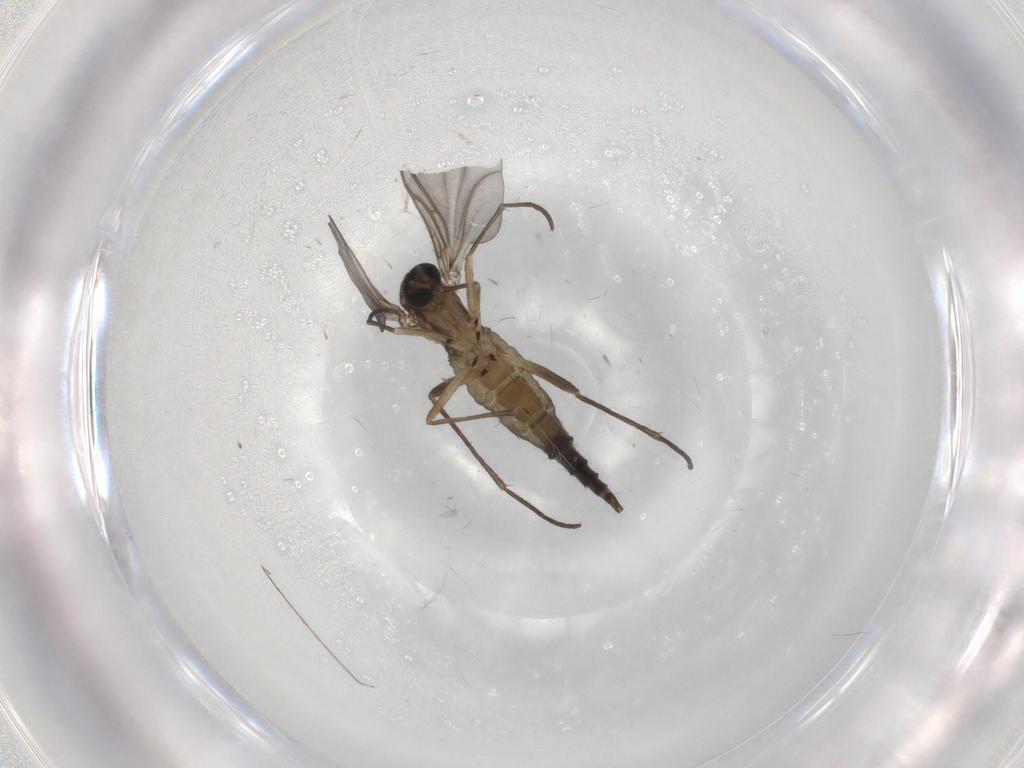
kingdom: Animalia
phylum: Arthropoda
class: Insecta
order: Diptera
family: Sciaridae
